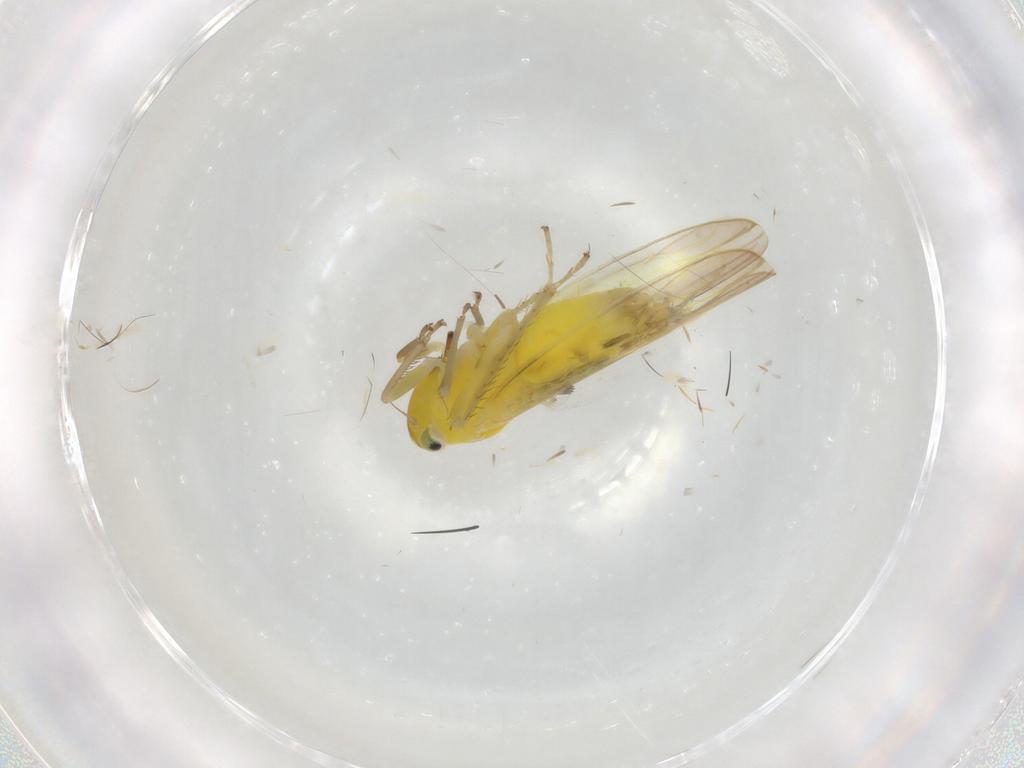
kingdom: Animalia
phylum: Arthropoda
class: Insecta
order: Hemiptera
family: Cicadellidae
